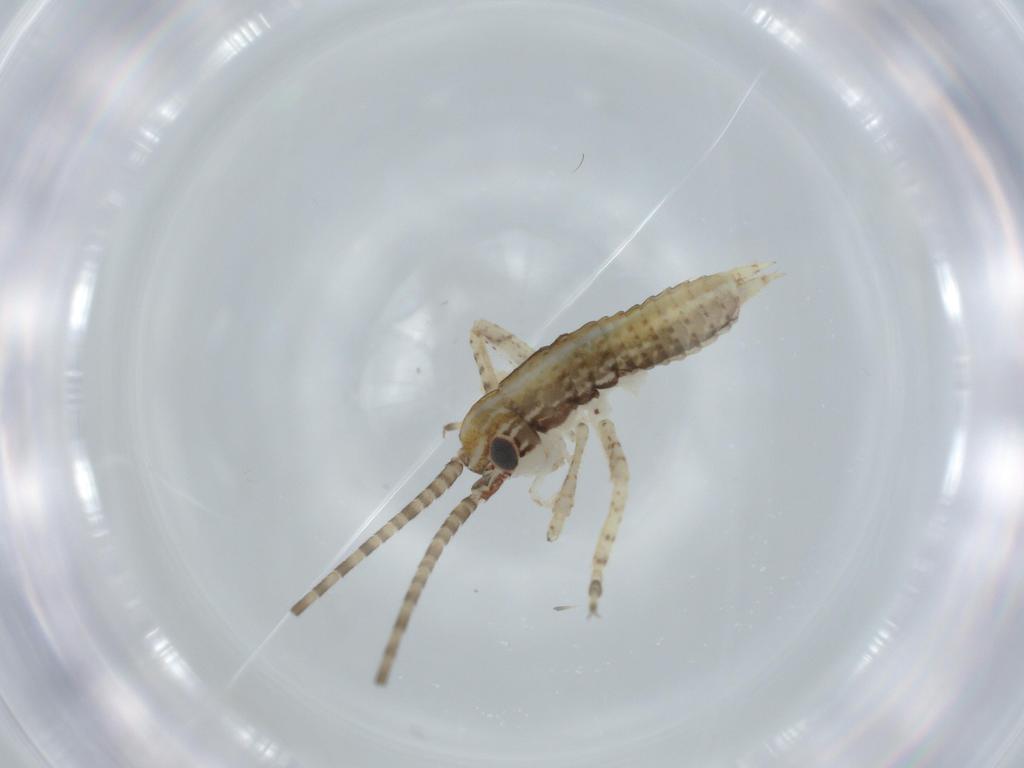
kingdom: Animalia
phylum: Arthropoda
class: Insecta
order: Orthoptera
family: Gryllidae
